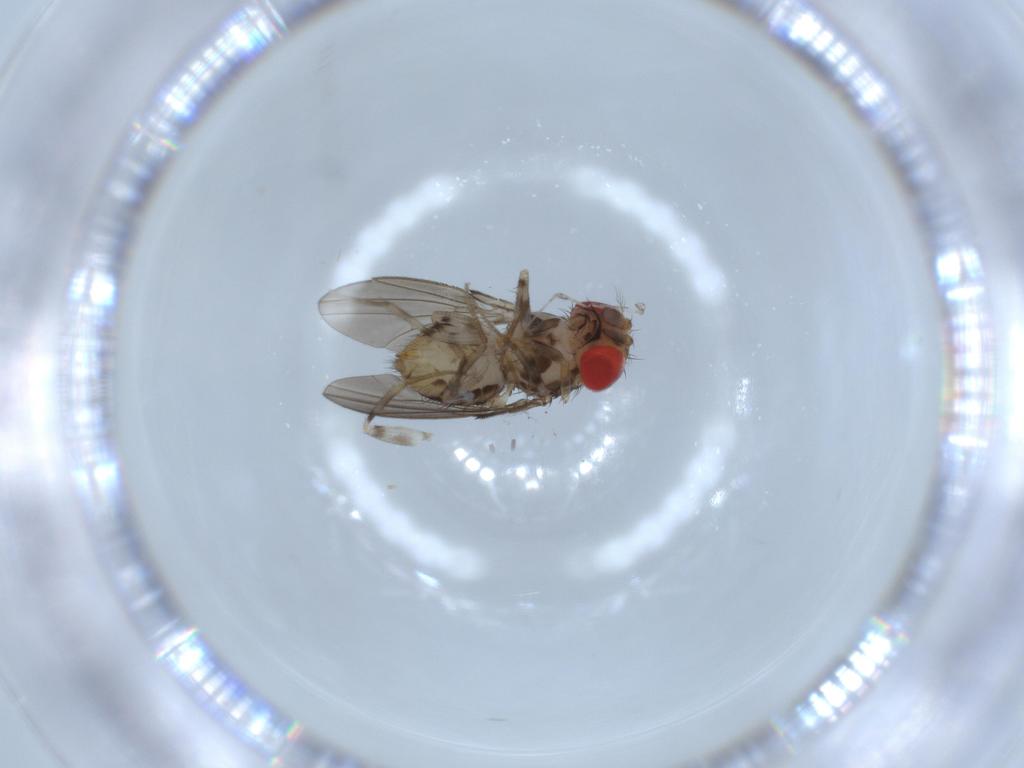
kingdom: Animalia
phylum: Arthropoda
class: Insecta
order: Diptera
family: Drosophilidae
